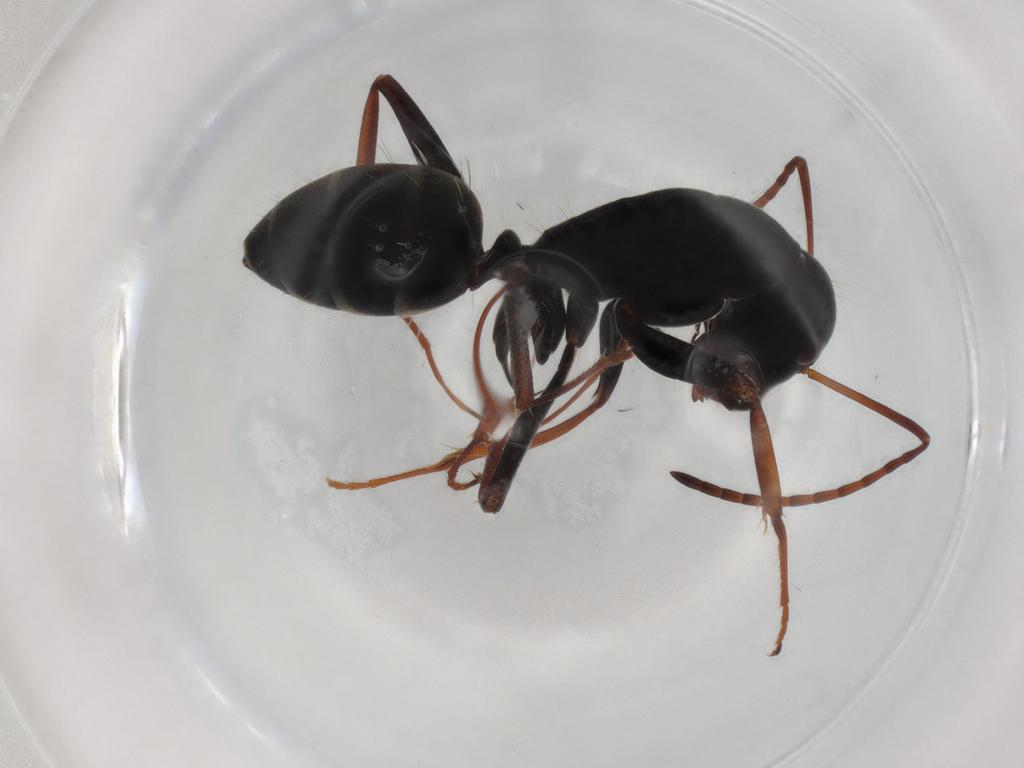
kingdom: Animalia
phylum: Arthropoda
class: Insecta
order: Hymenoptera
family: Formicidae
